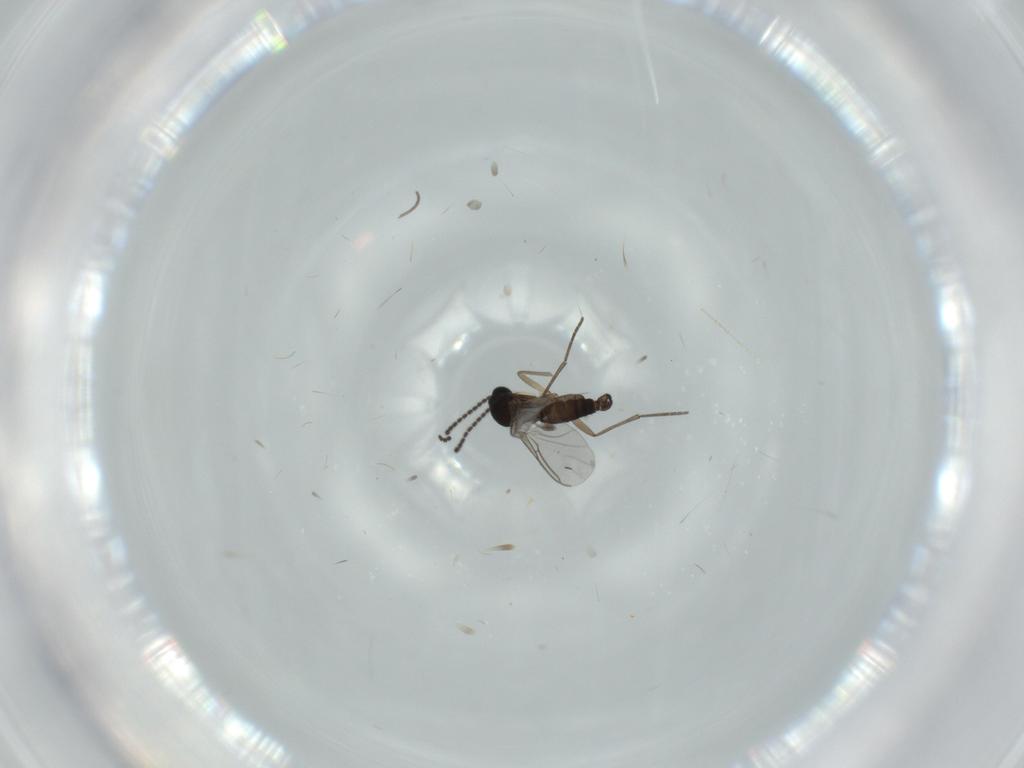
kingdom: Animalia
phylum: Arthropoda
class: Insecta
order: Diptera
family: Sciaridae
